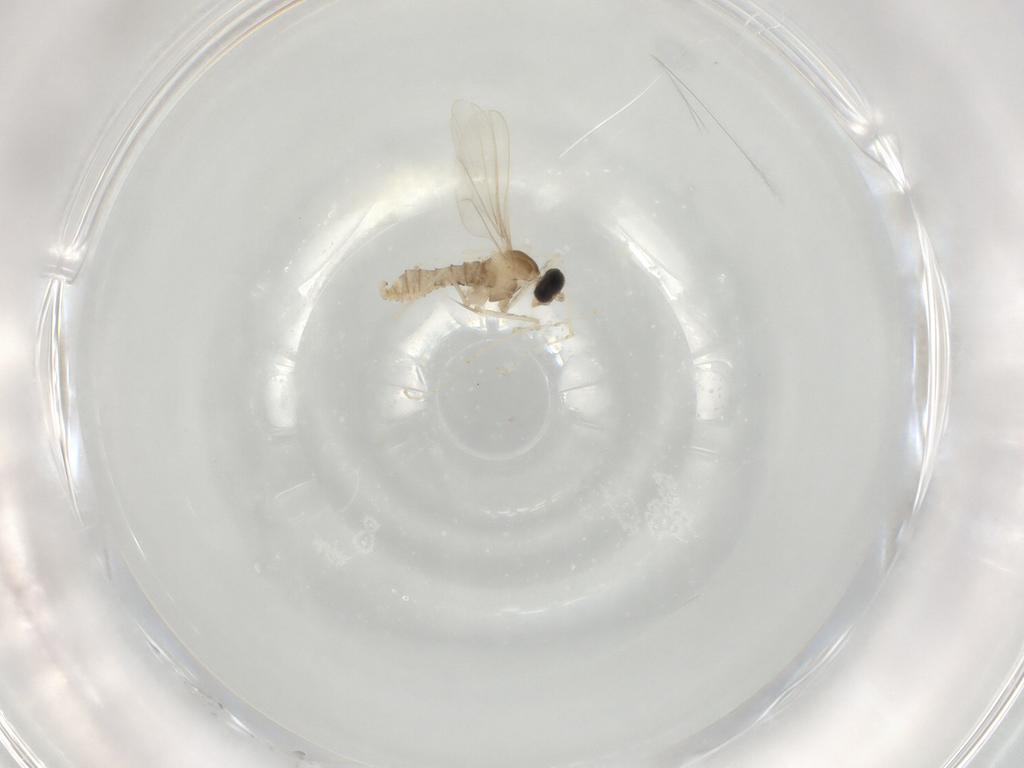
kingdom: Animalia
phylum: Arthropoda
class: Insecta
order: Diptera
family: Cecidomyiidae
